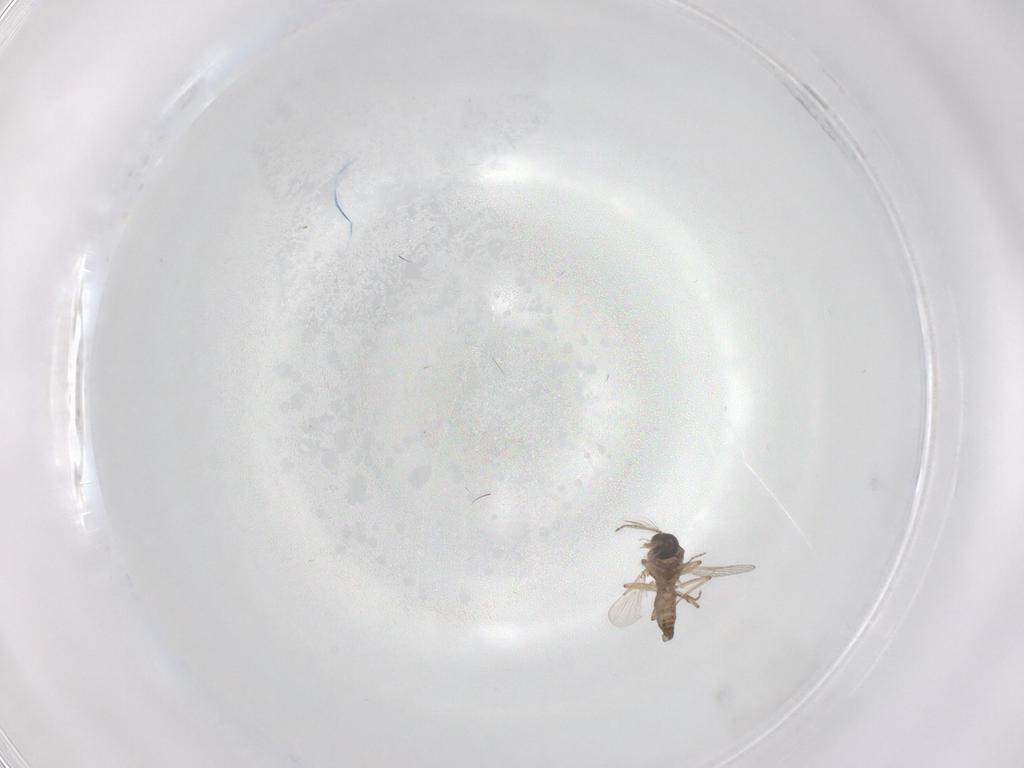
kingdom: Animalia
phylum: Arthropoda
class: Insecta
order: Diptera
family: Ceratopogonidae
